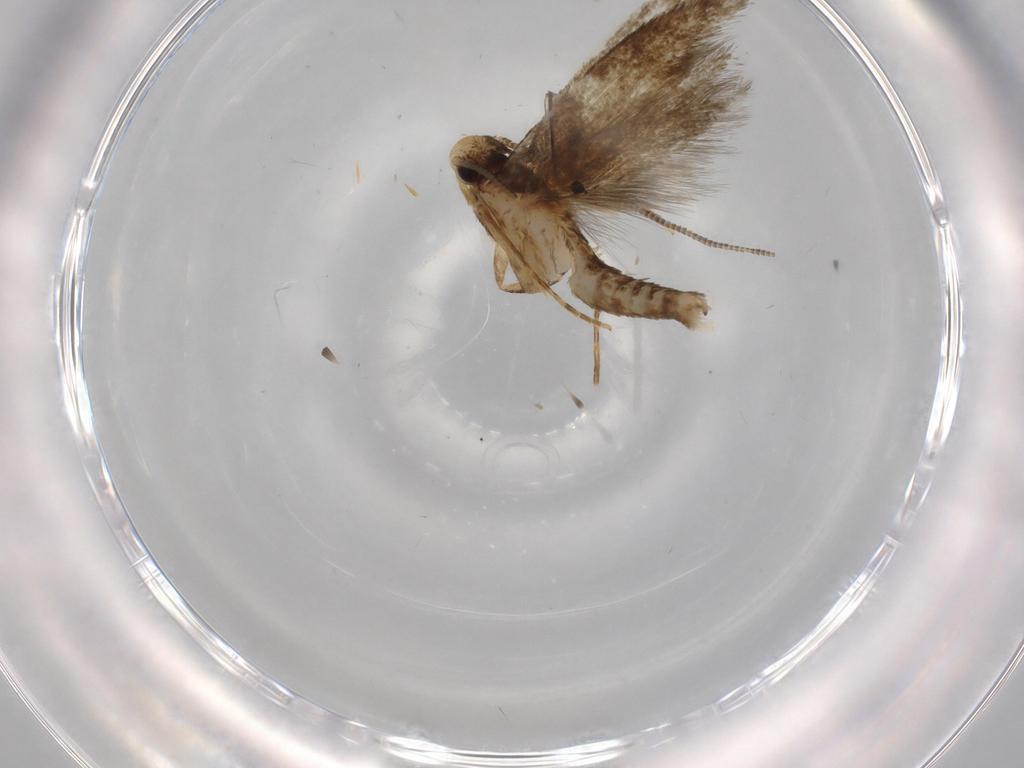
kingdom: Animalia
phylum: Arthropoda
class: Insecta
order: Lepidoptera
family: Tineidae
